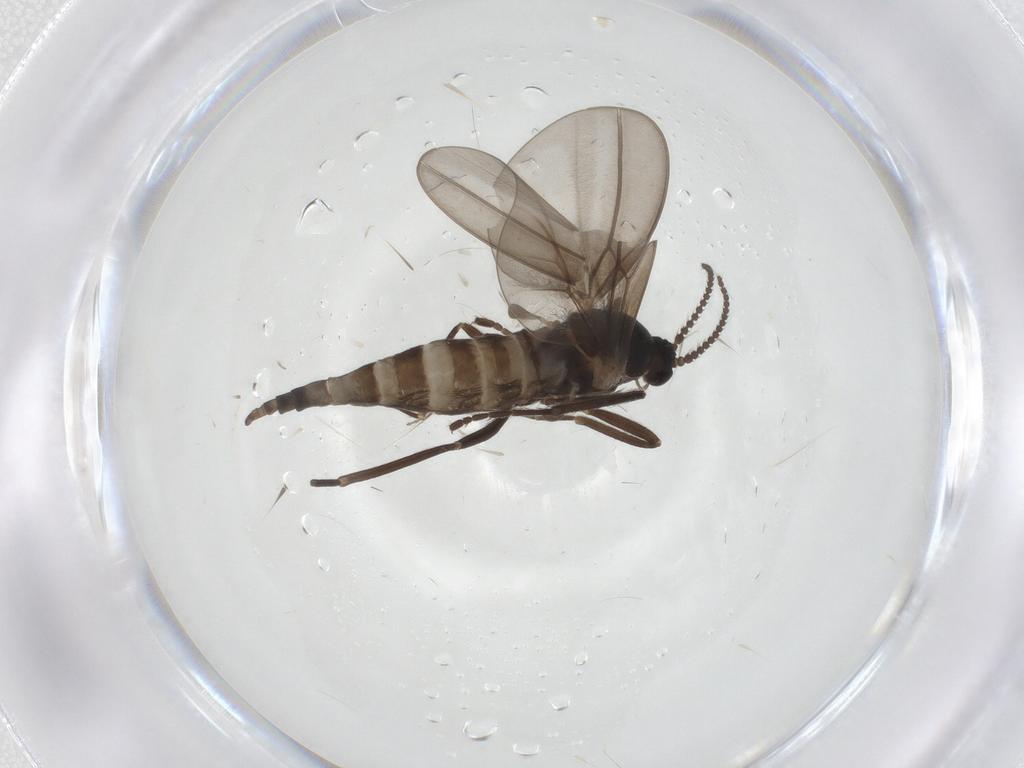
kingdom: Animalia
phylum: Arthropoda
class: Insecta
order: Diptera
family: Cecidomyiidae
